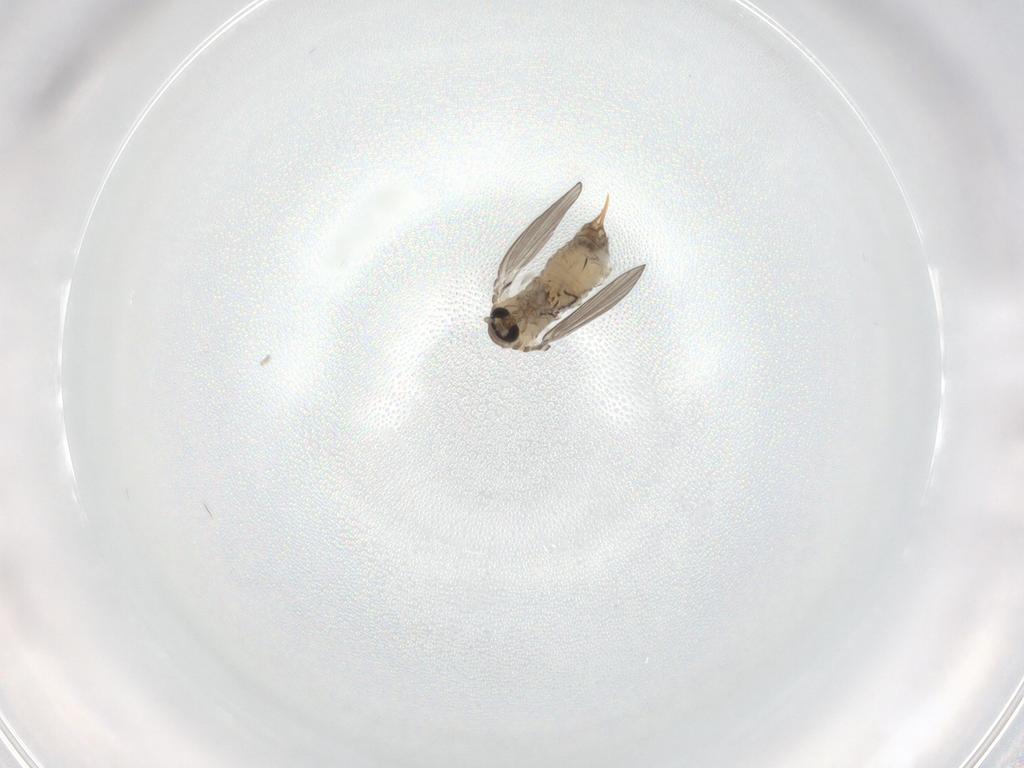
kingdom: Animalia
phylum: Arthropoda
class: Insecta
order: Diptera
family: Psychodidae
